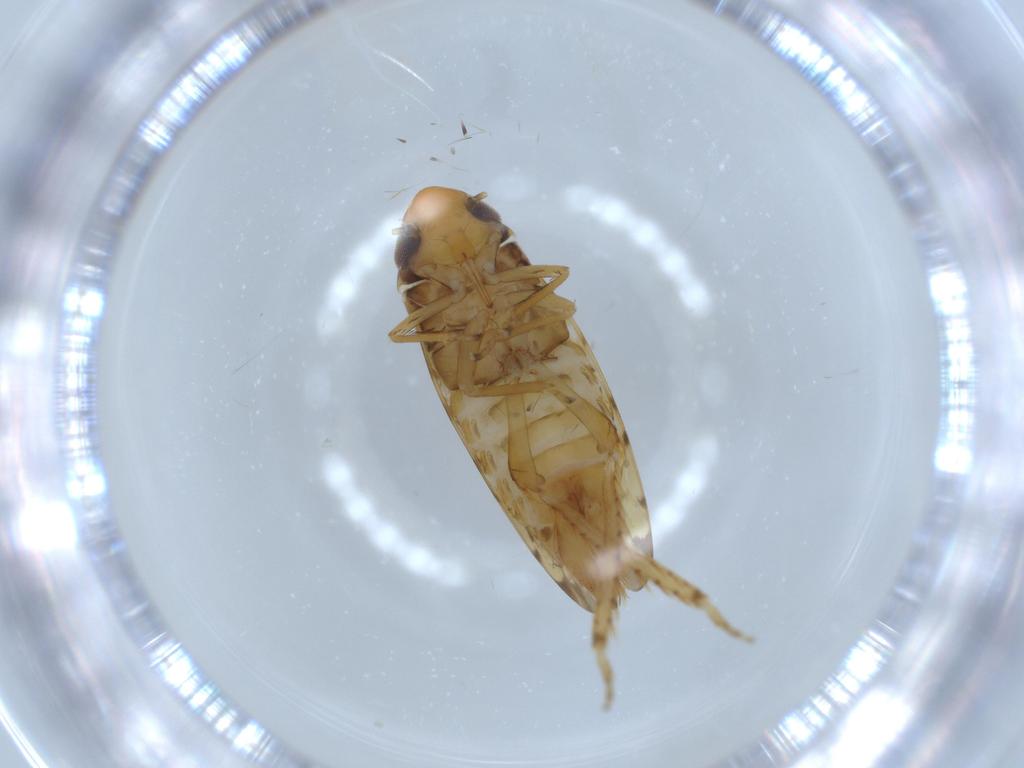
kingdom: Animalia
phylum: Arthropoda
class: Insecta
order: Hemiptera
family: Cicadellidae
